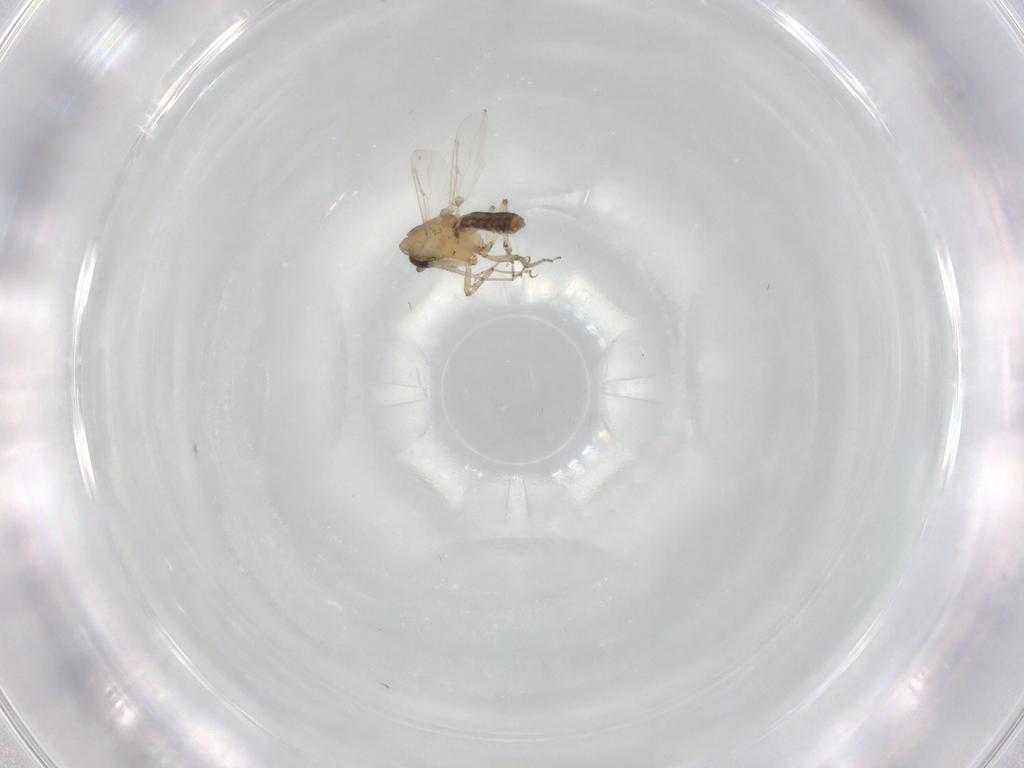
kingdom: Animalia
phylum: Arthropoda
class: Insecta
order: Diptera
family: Ceratopogonidae
